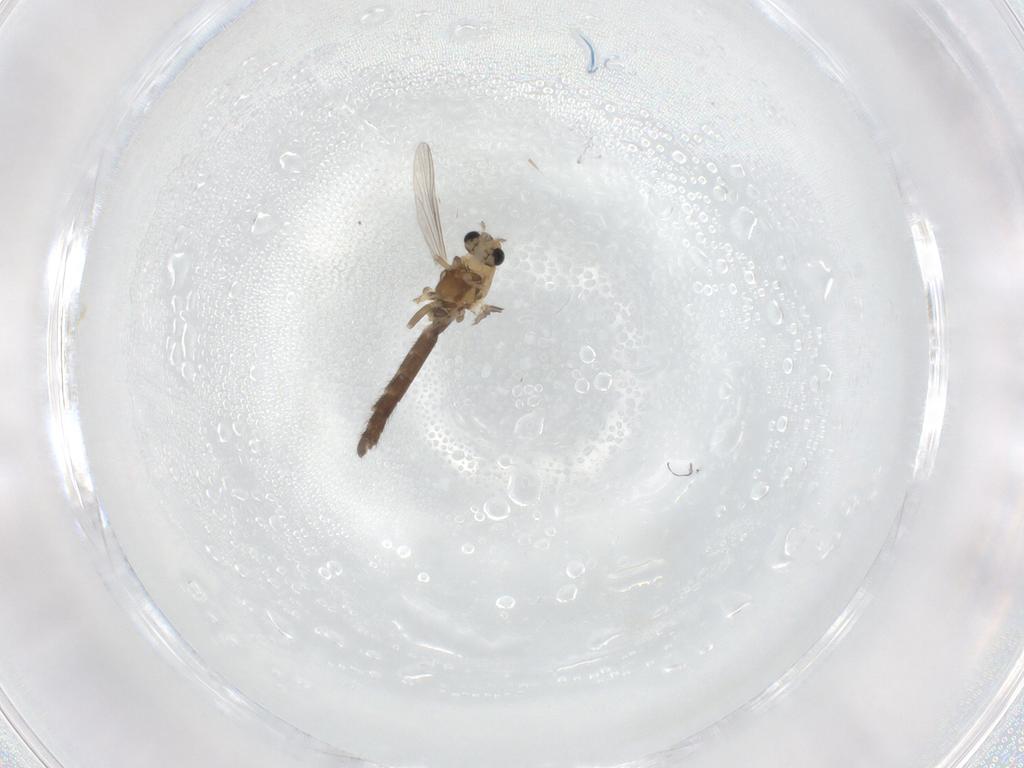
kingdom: Animalia
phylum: Arthropoda
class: Insecta
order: Diptera
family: Chironomidae
